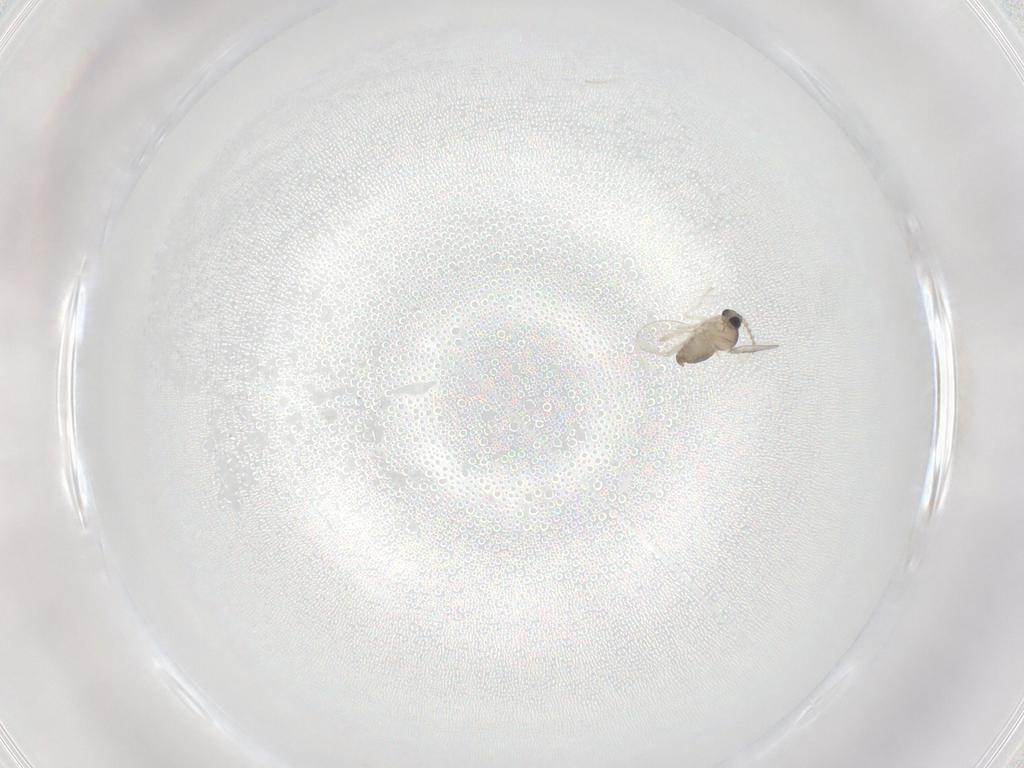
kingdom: Animalia
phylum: Arthropoda
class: Insecta
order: Diptera
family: Cecidomyiidae
